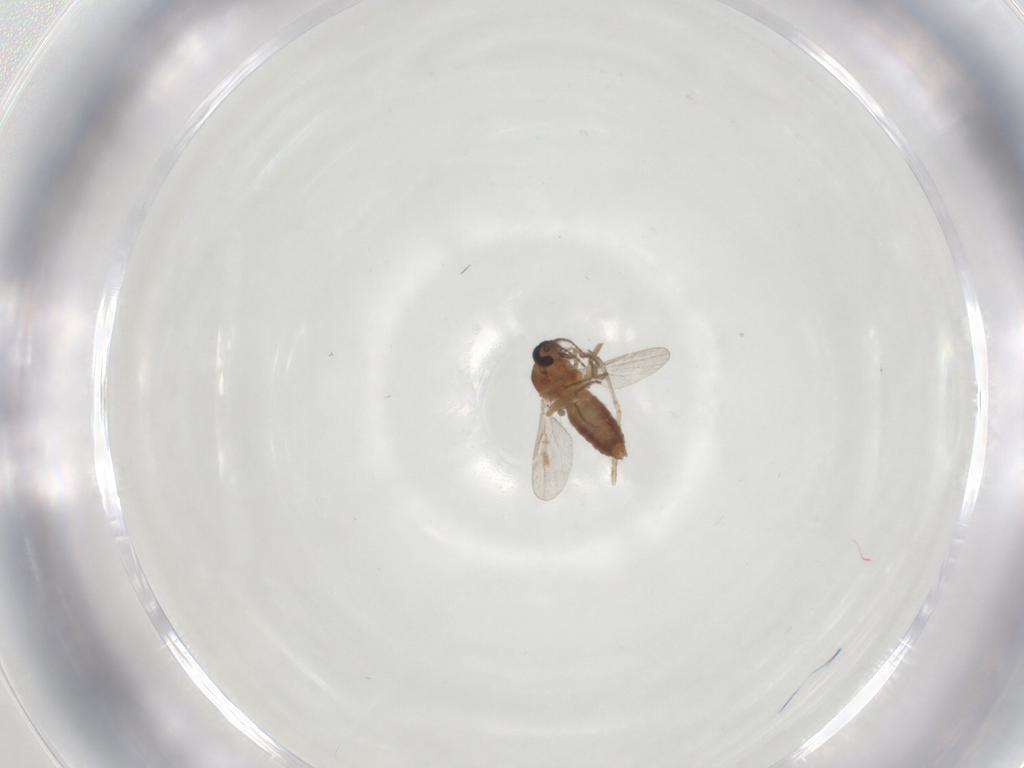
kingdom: Animalia
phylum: Arthropoda
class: Insecta
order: Diptera
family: Ceratopogonidae
